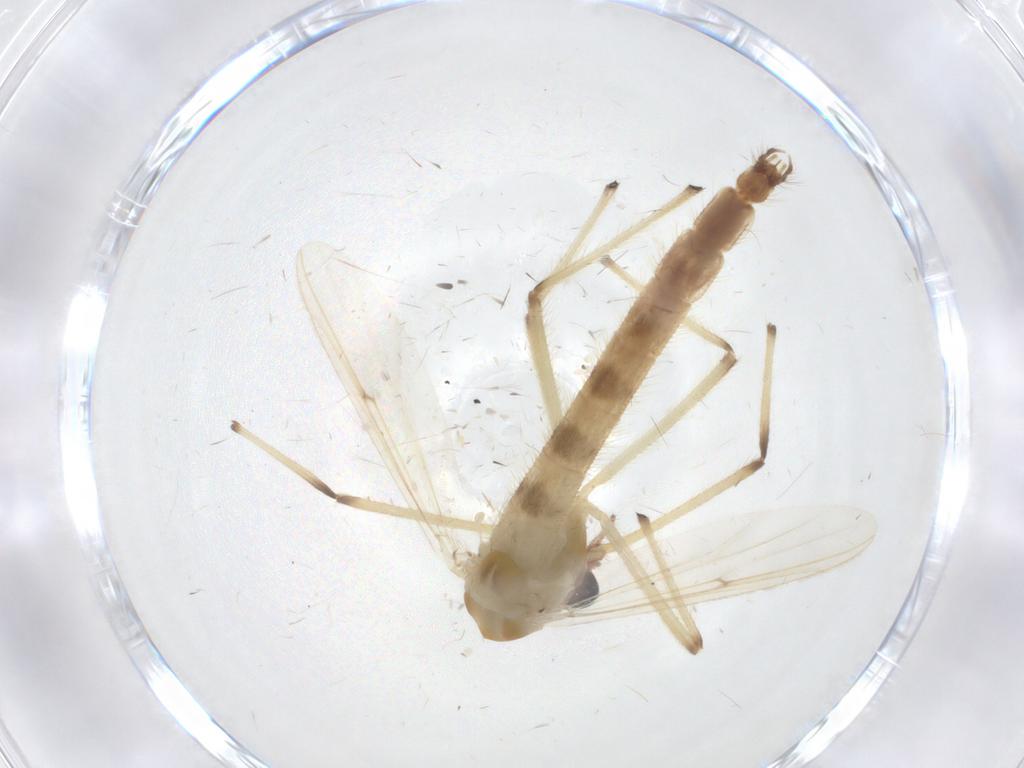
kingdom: Animalia
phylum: Arthropoda
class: Insecta
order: Diptera
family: Chironomidae
